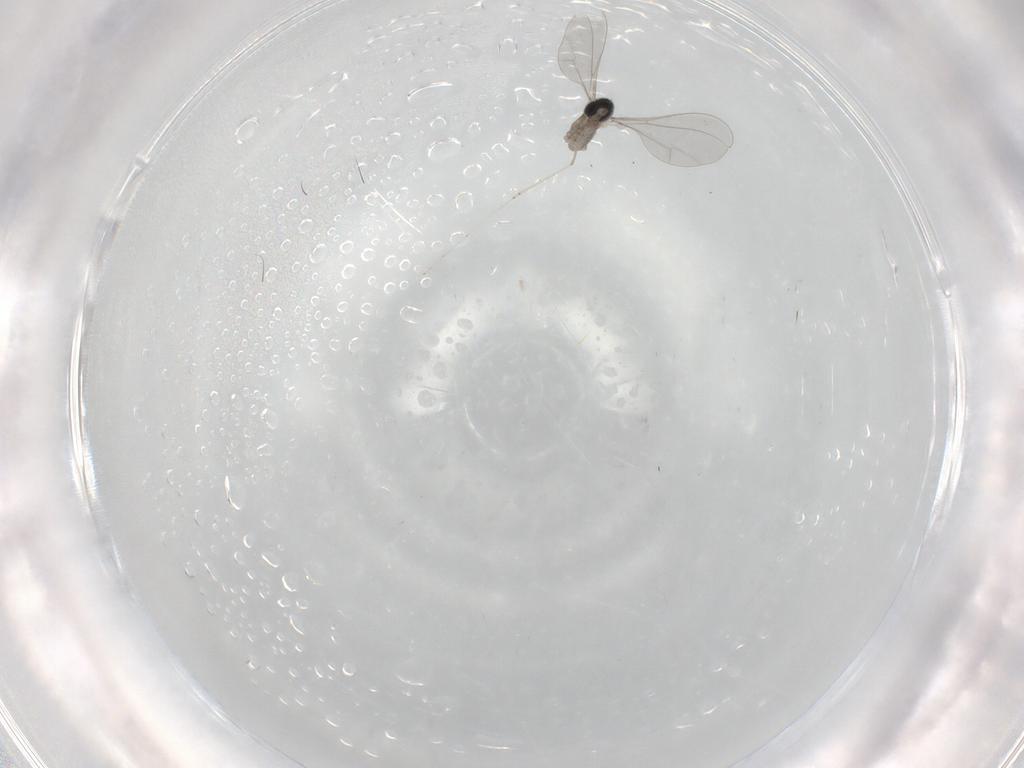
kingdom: Animalia
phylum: Arthropoda
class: Insecta
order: Diptera
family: Cecidomyiidae
